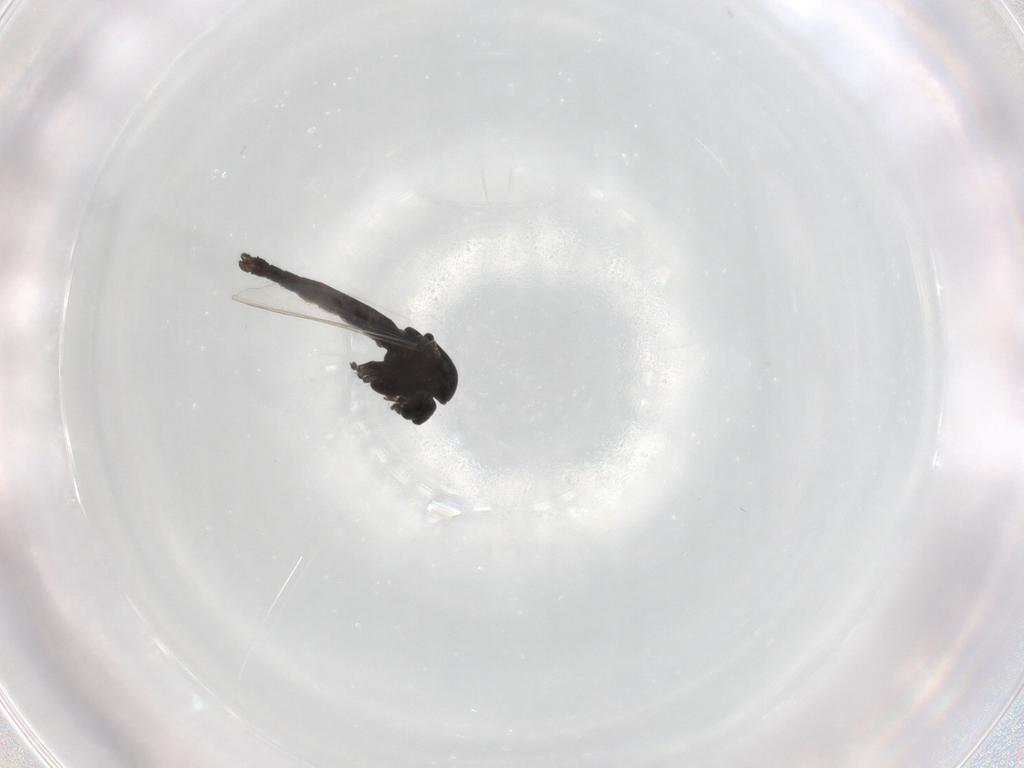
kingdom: Animalia
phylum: Arthropoda
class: Insecta
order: Diptera
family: Chironomidae
